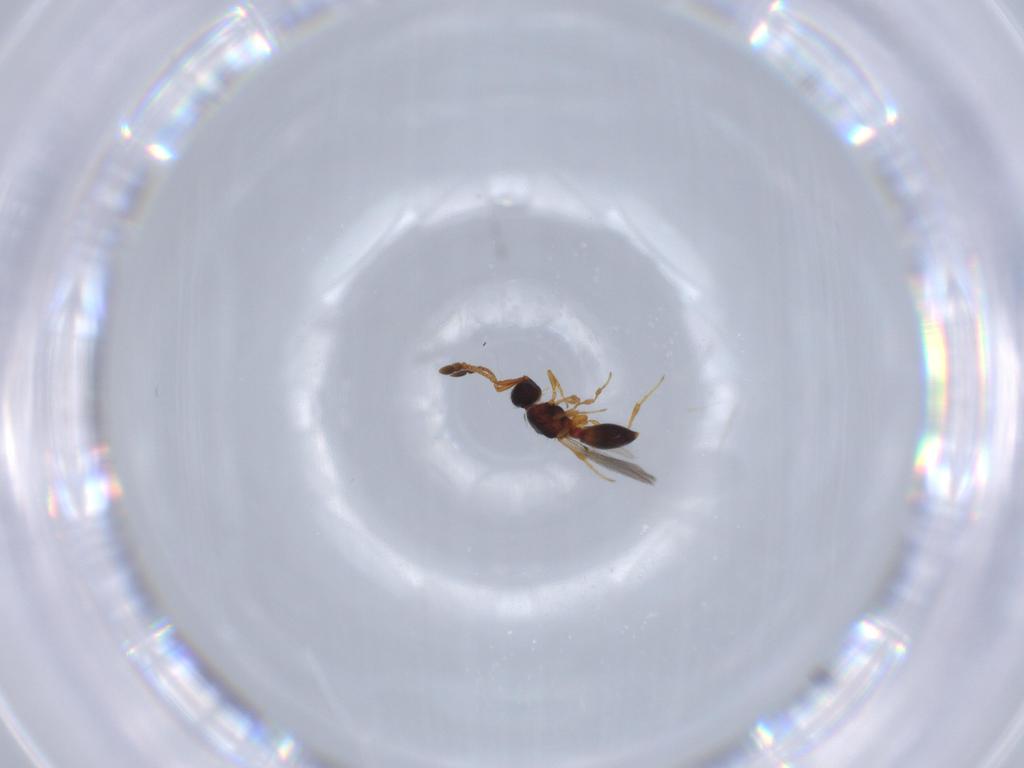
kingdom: Animalia
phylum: Arthropoda
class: Insecta
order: Hymenoptera
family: Diapriidae
